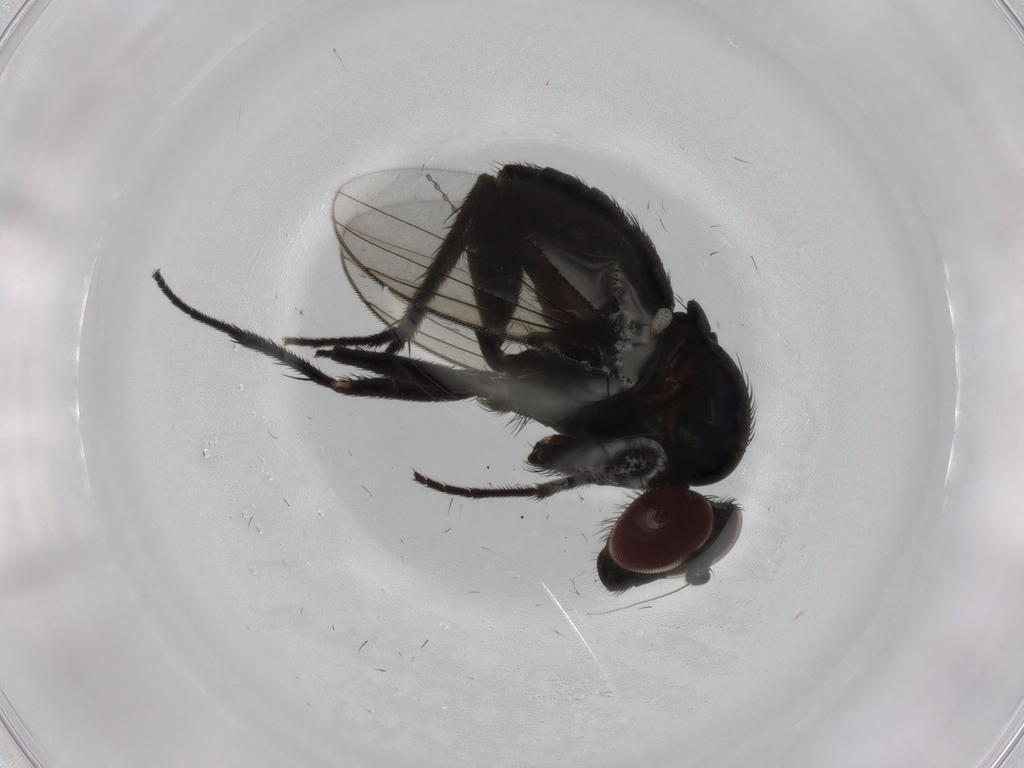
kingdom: Animalia
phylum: Arthropoda
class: Insecta
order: Diptera
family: Dolichopodidae
